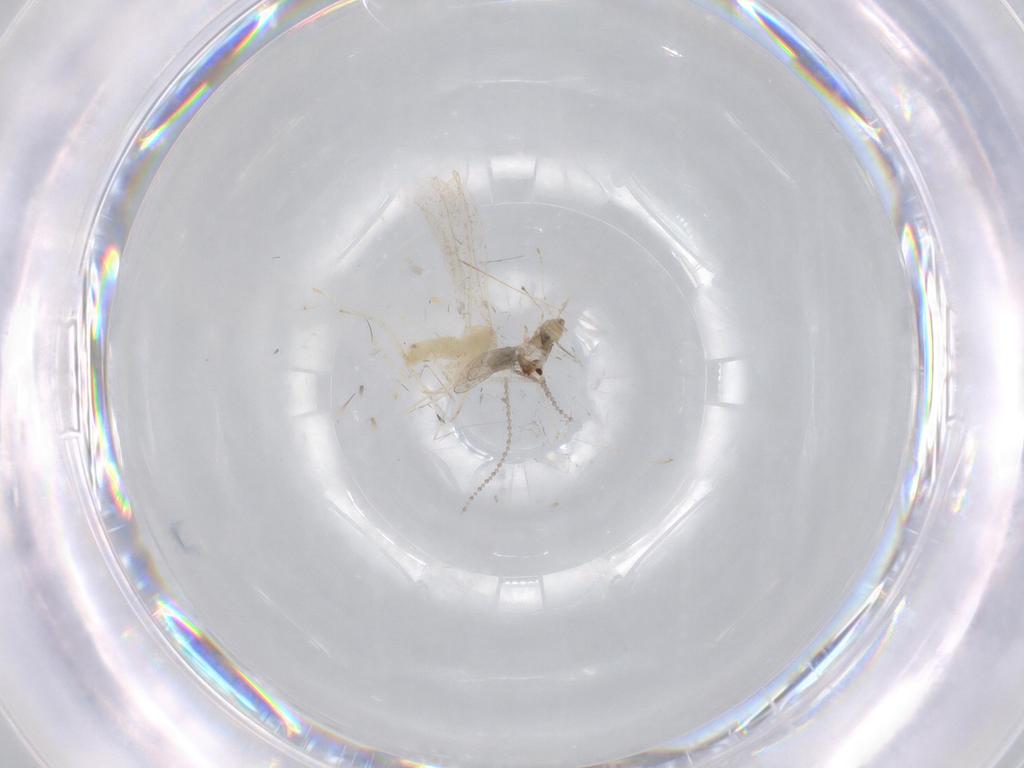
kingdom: Animalia
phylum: Arthropoda
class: Insecta
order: Diptera
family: Cecidomyiidae
